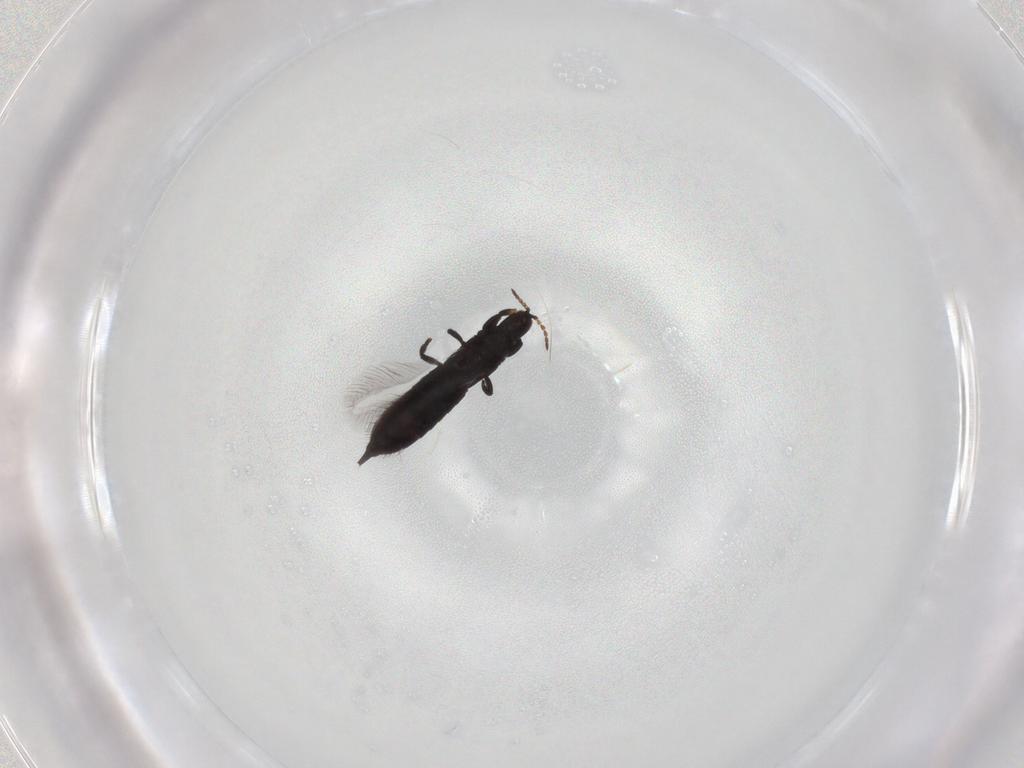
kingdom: Animalia
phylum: Arthropoda
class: Insecta
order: Thysanoptera
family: Phlaeothripidae
